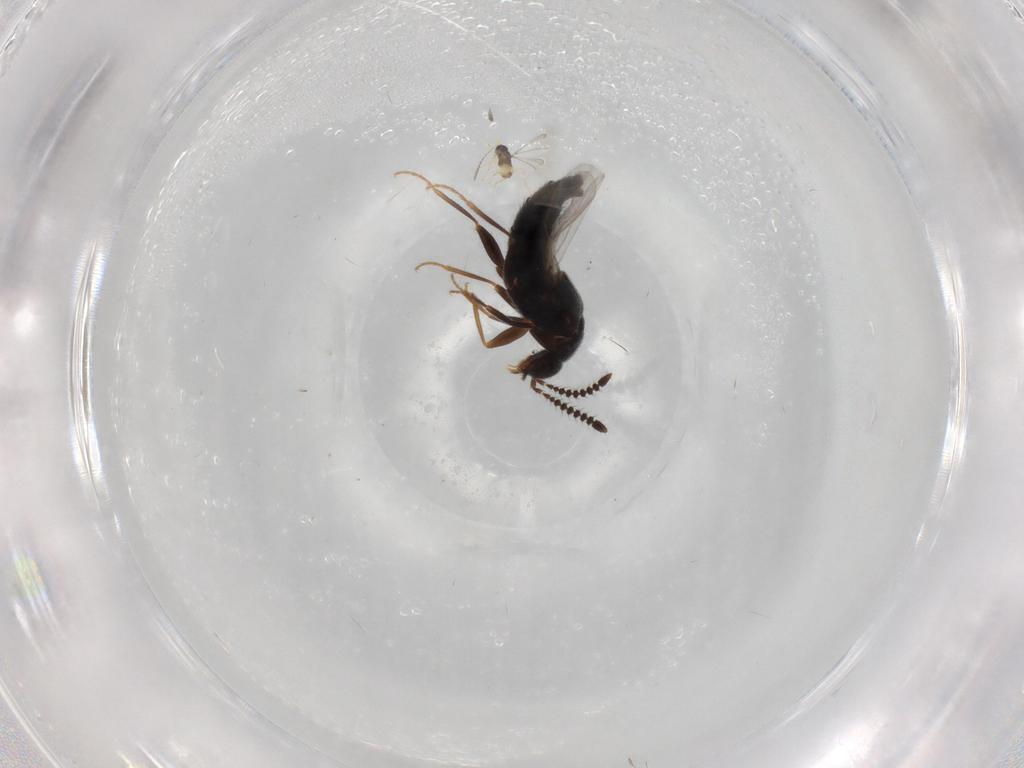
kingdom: Animalia
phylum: Arthropoda
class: Insecta
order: Coleoptera
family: Staphylinidae
